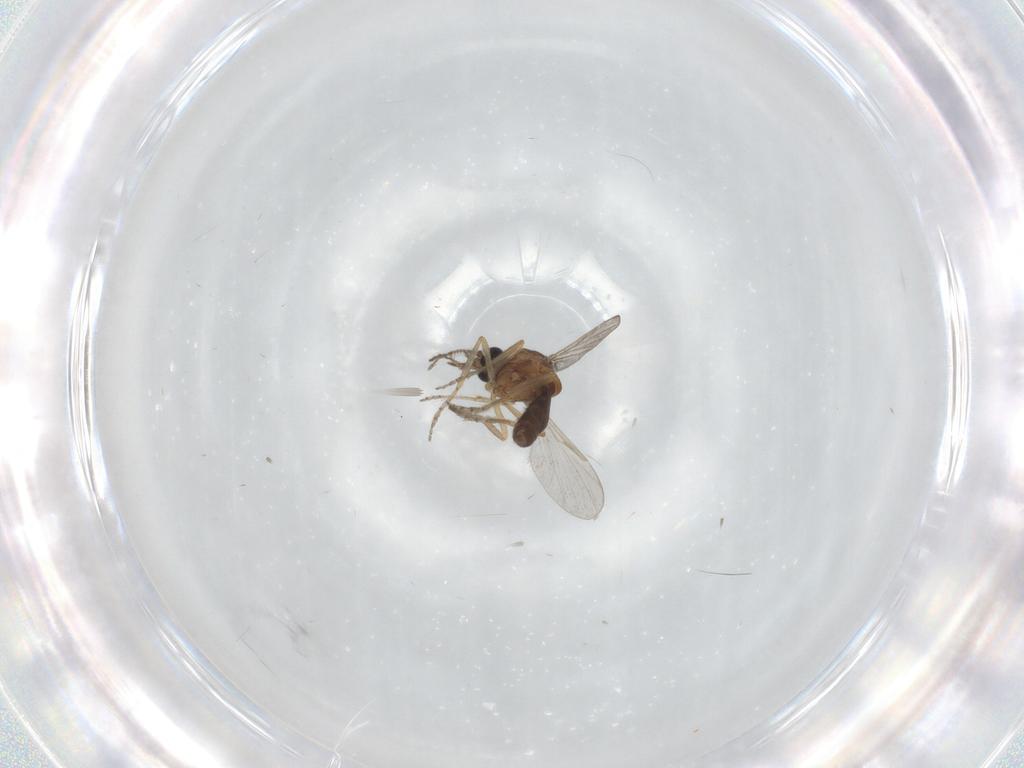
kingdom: Animalia
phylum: Arthropoda
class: Insecta
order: Diptera
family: Ceratopogonidae
